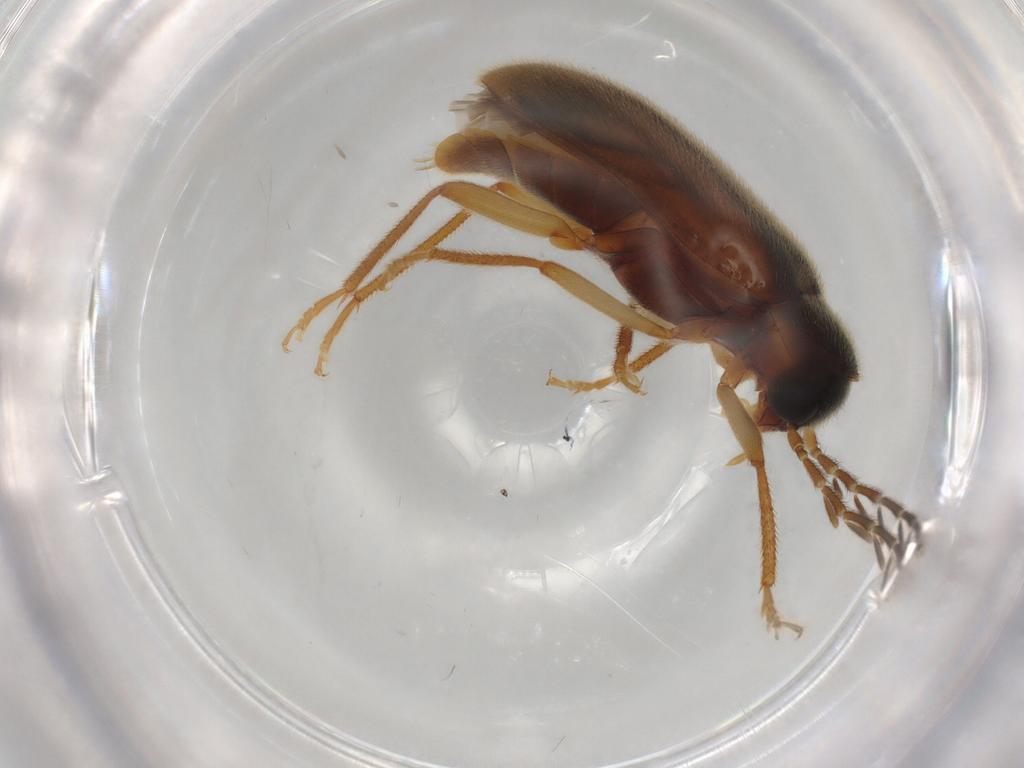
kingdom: Animalia
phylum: Arthropoda
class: Insecta
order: Coleoptera
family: Ptilodactylidae
